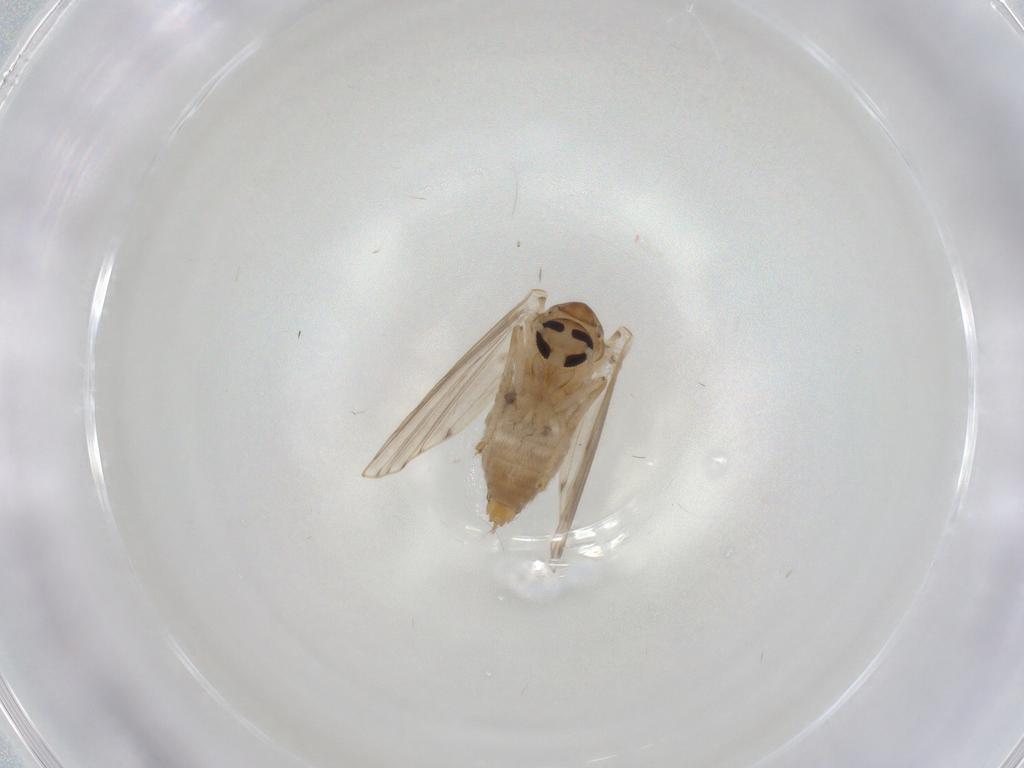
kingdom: Animalia
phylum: Arthropoda
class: Insecta
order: Diptera
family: Cecidomyiidae
